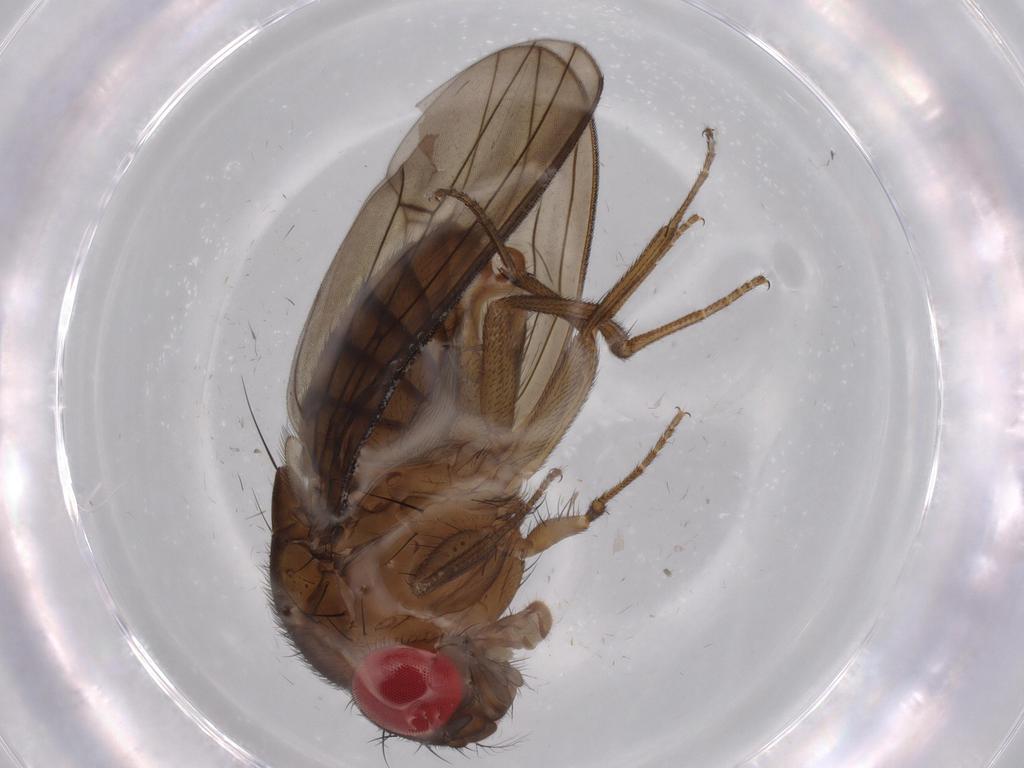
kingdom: Animalia
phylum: Arthropoda
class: Insecta
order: Diptera
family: Drosophilidae
